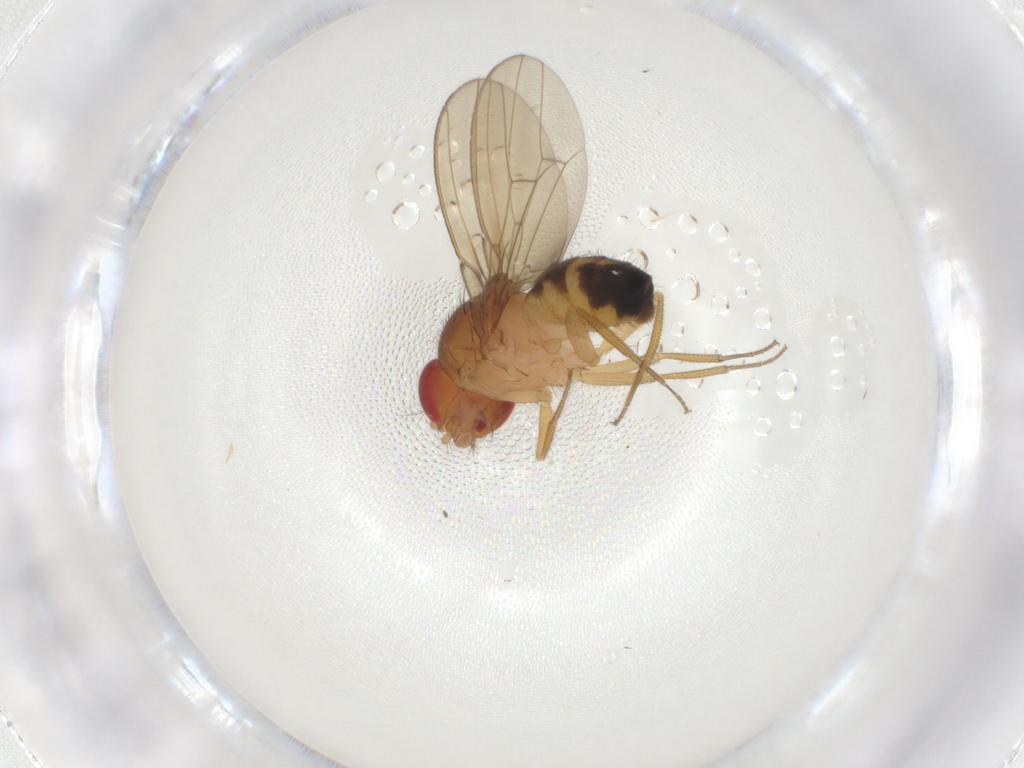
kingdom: Animalia
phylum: Arthropoda
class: Insecta
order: Diptera
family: Drosophilidae
